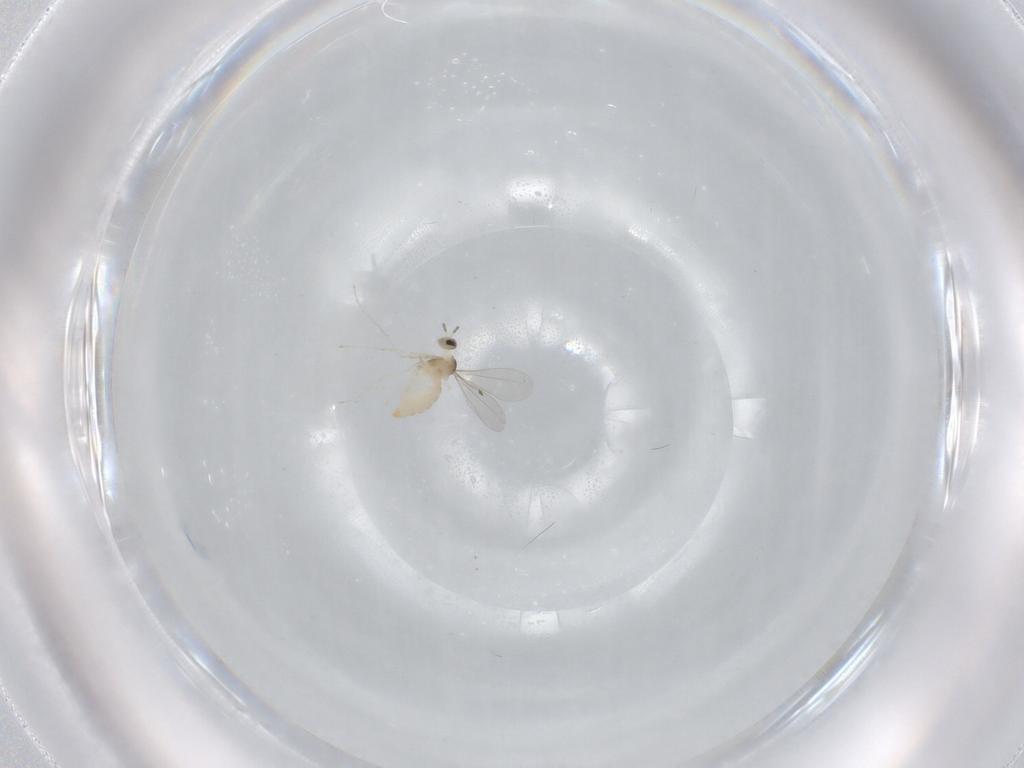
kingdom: Animalia
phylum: Arthropoda
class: Insecta
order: Diptera
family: Cecidomyiidae
